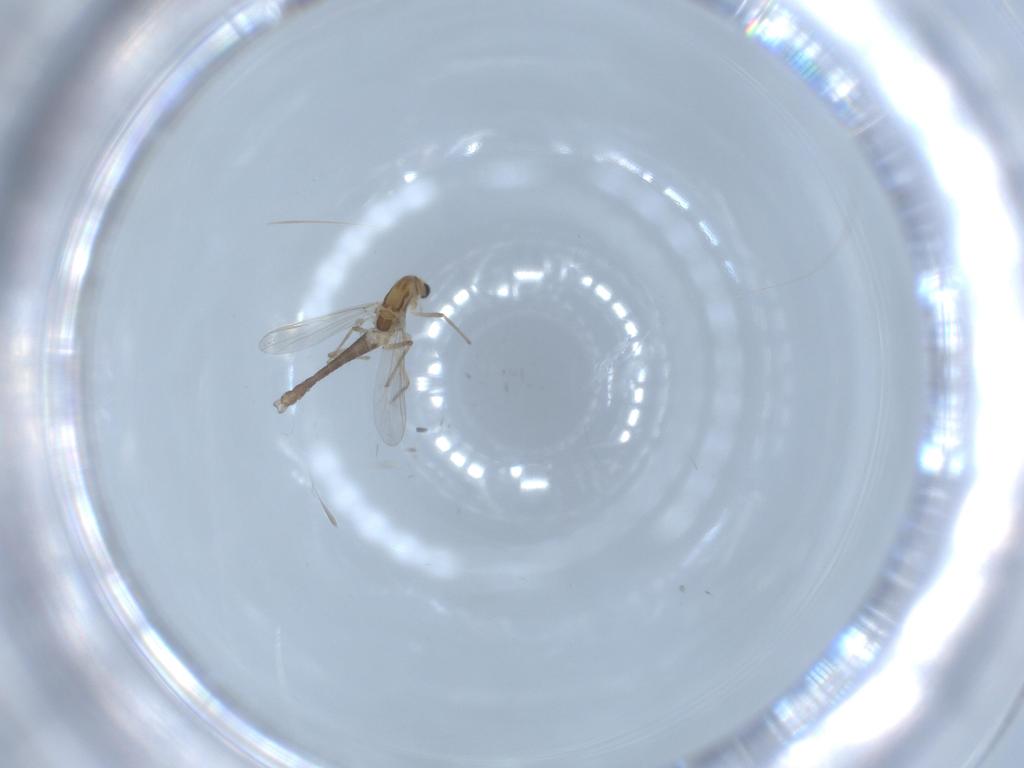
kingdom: Animalia
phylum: Arthropoda
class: Insecta
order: Diptera
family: Chironomidae
